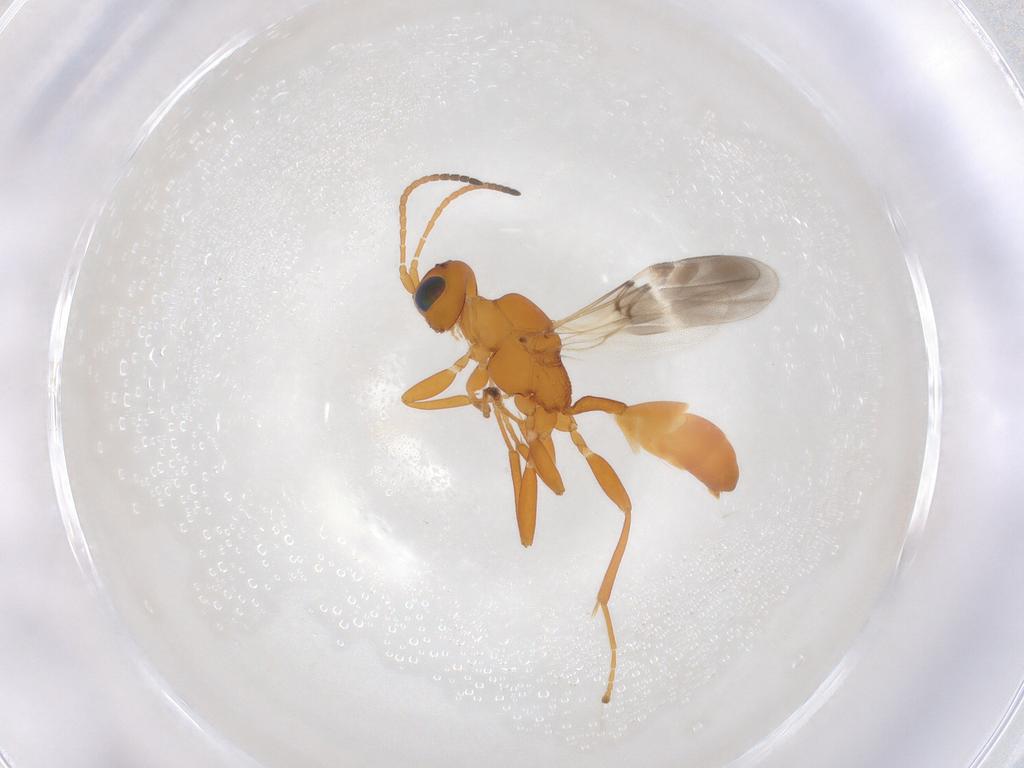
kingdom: Animalia
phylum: Arthropoda
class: Insecta
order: Hymenoptera
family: Braconidae
